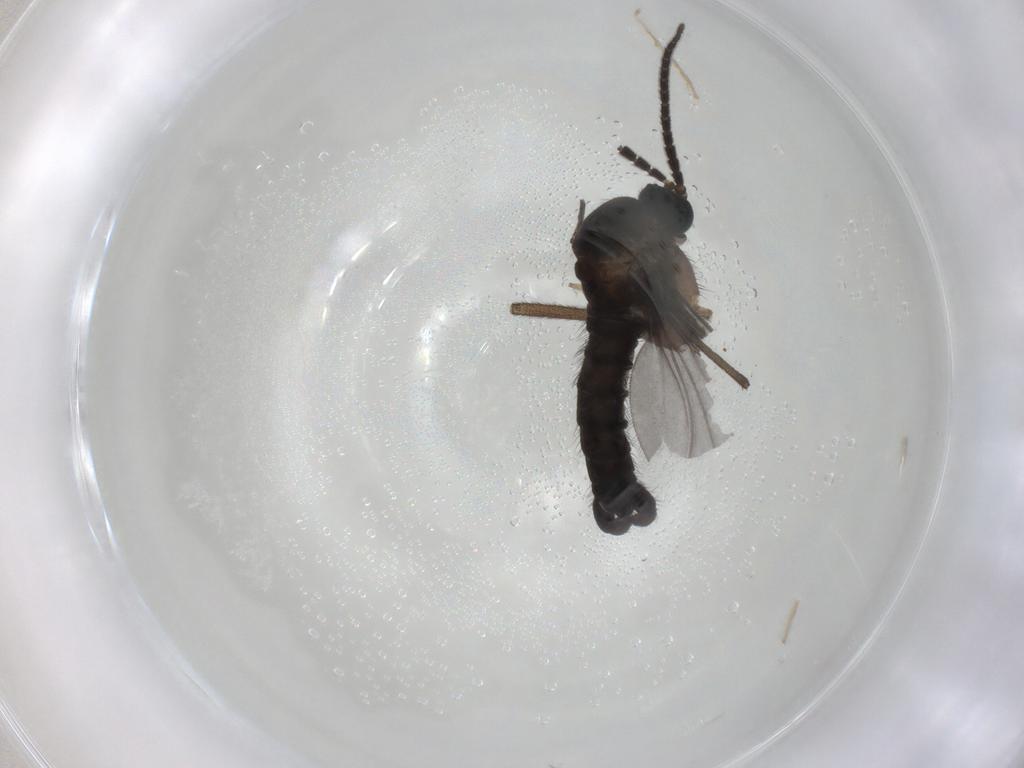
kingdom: Animalia
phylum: Arthropoda
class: Insecta
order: Diptera
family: Sciaridae
